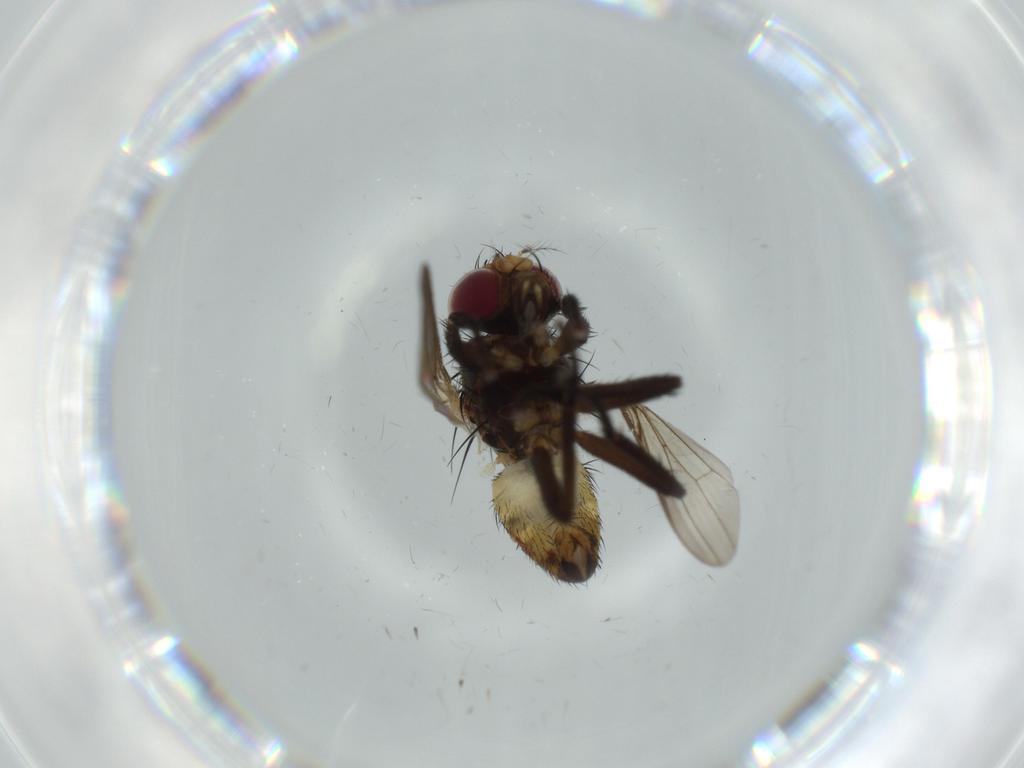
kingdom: Animalia
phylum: Arthropoda
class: Insecta
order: Diptera
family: Anthomyiidae
